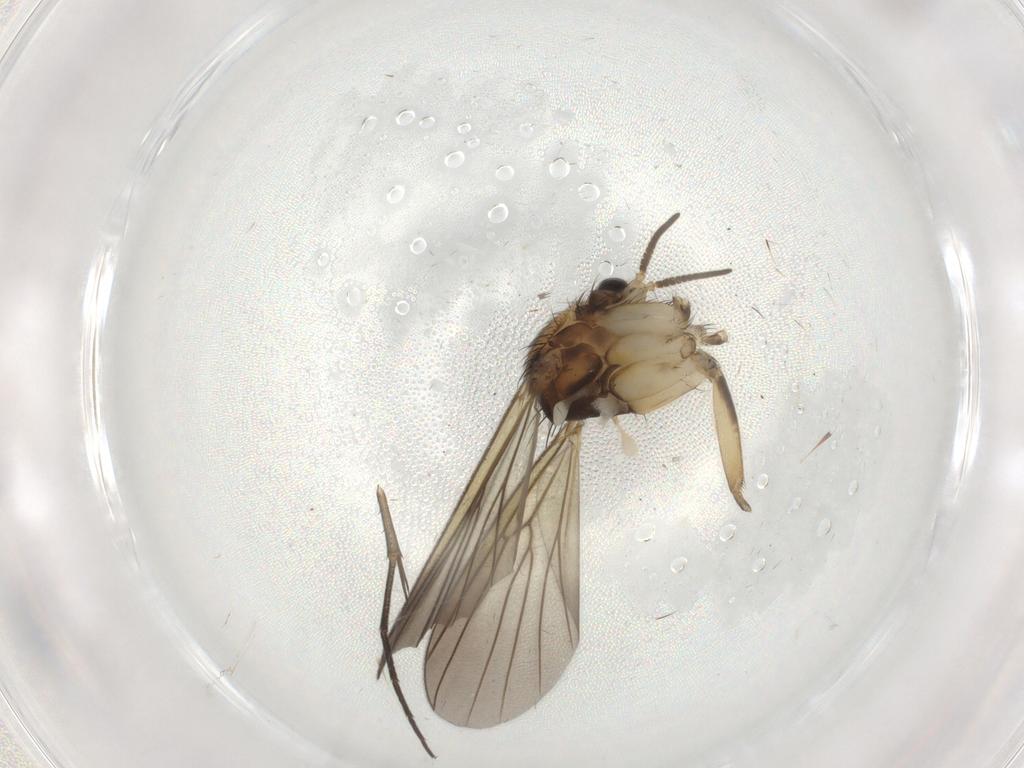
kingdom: Animalia
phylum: Arthropoda
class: Insecta
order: Diptera
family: Mycetophilidae
